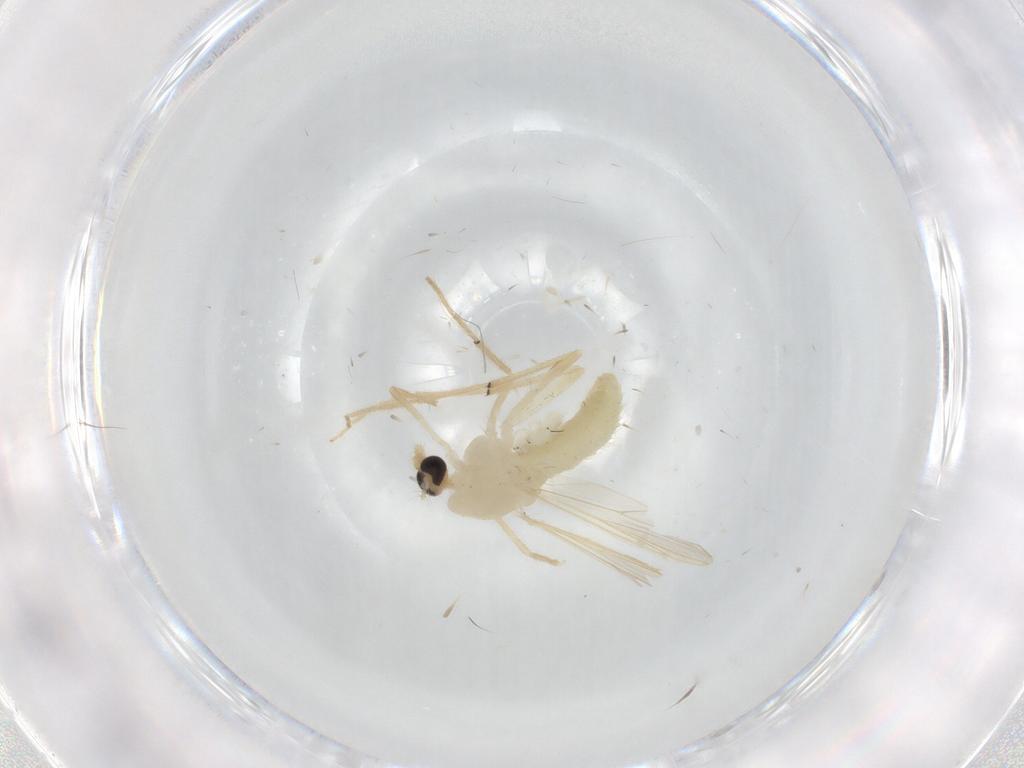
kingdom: Animalia
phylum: Arthropoda
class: Insecta
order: Diptera
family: Chironomidae
